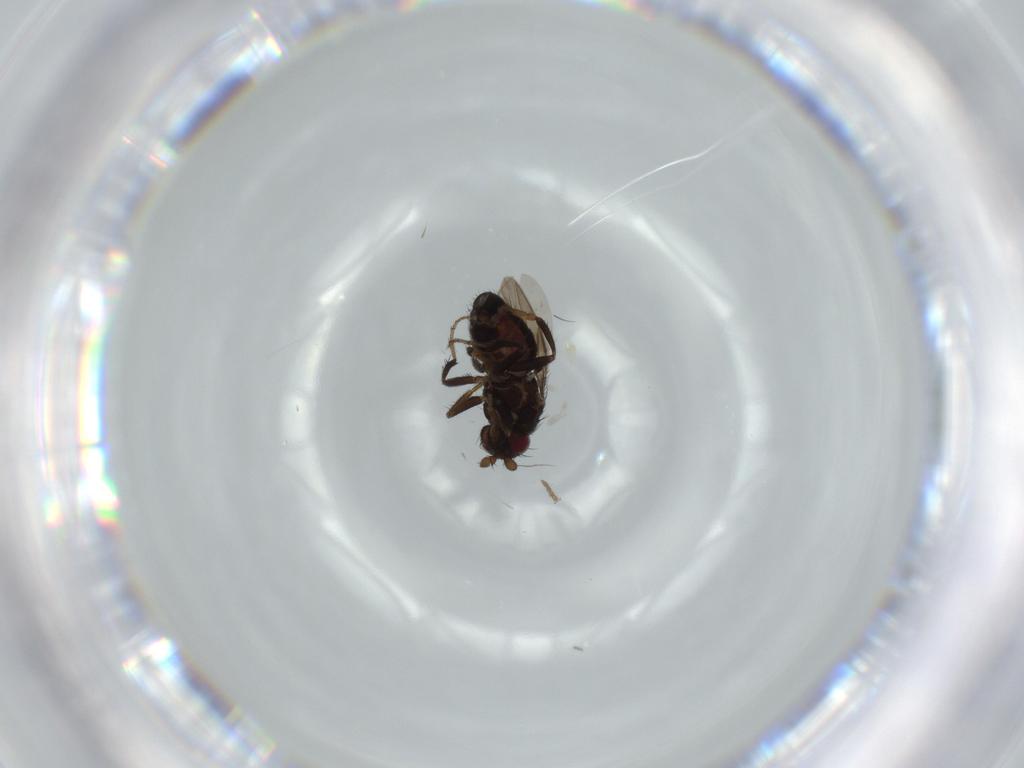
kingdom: Animalia
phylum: Arthropoda
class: Insecta
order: Diptera
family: Sphaeroceridae
